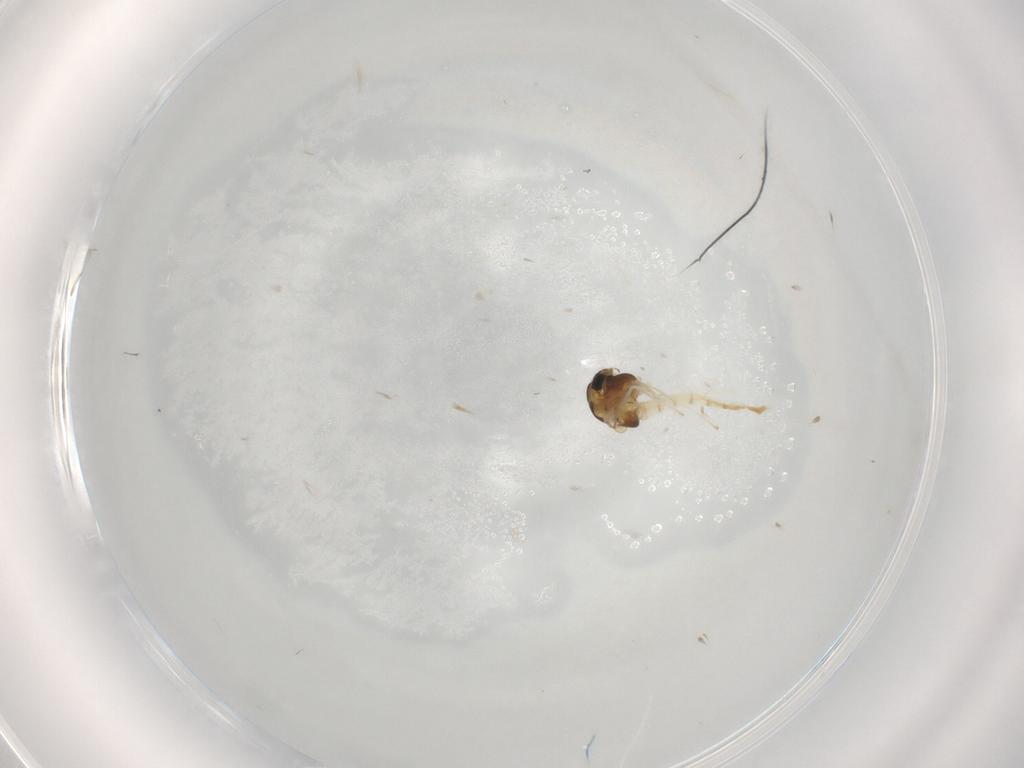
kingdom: Animalia
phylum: Arthropoda
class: Insecta
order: Diptera
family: Chironomidae
